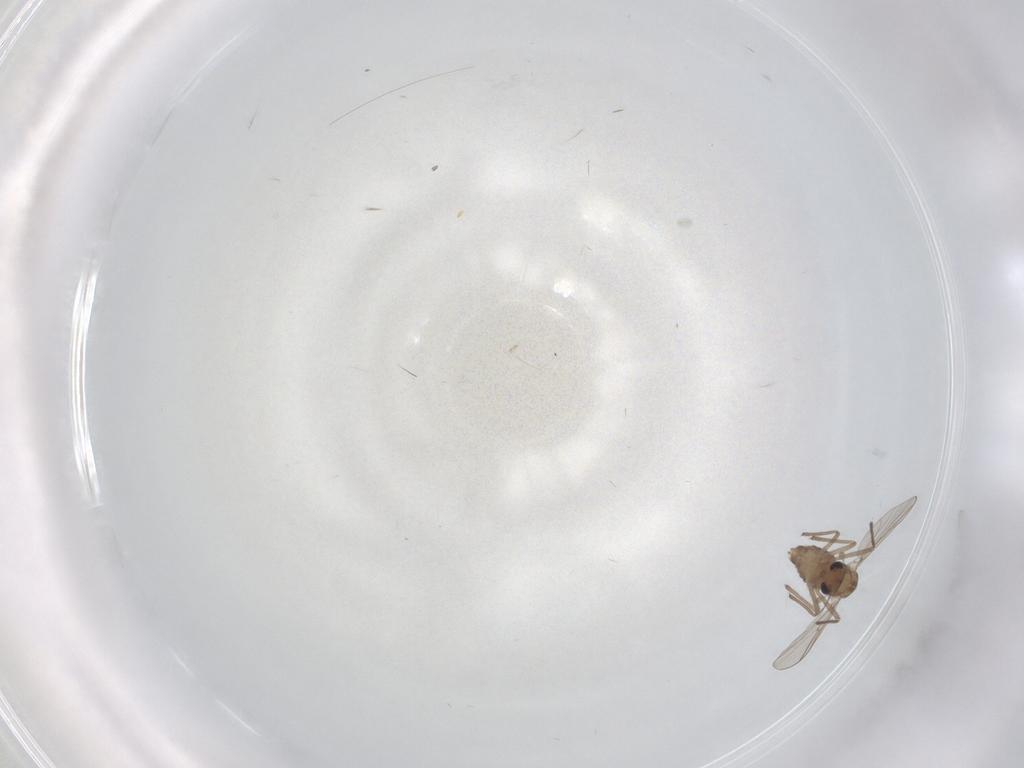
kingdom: Animalia
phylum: Arthropoda
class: Insecta
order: Diptera
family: Chironomidae
